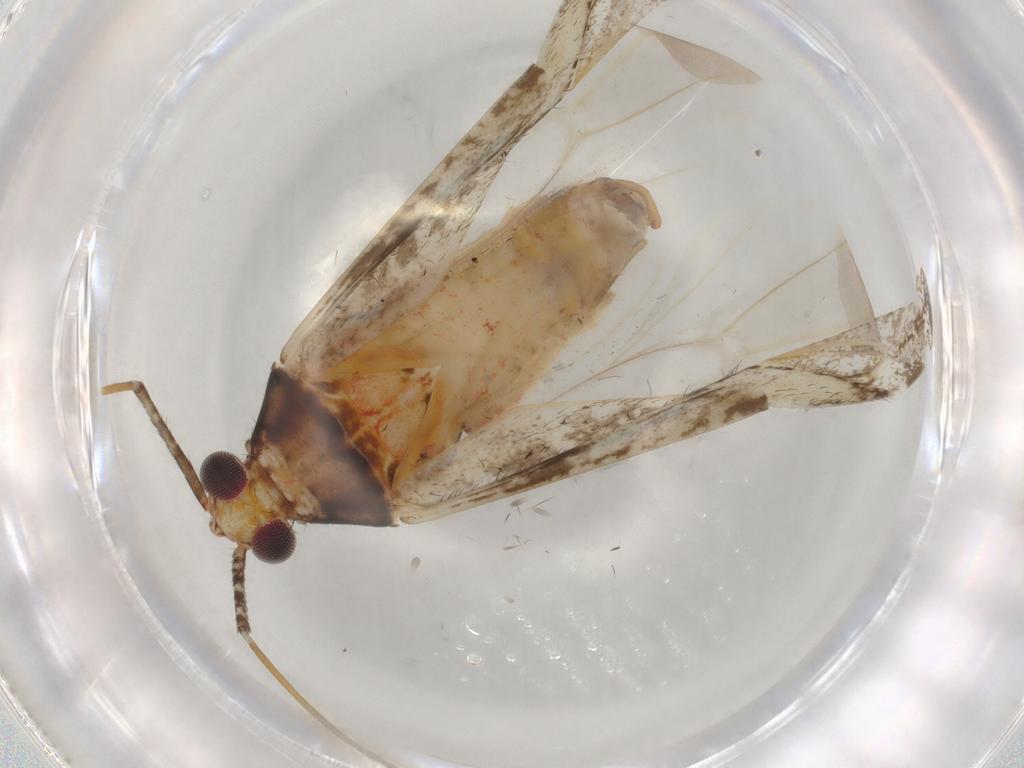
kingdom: Animalia
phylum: Arthropoda
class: Insecta
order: Hemiptera
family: Miridae
